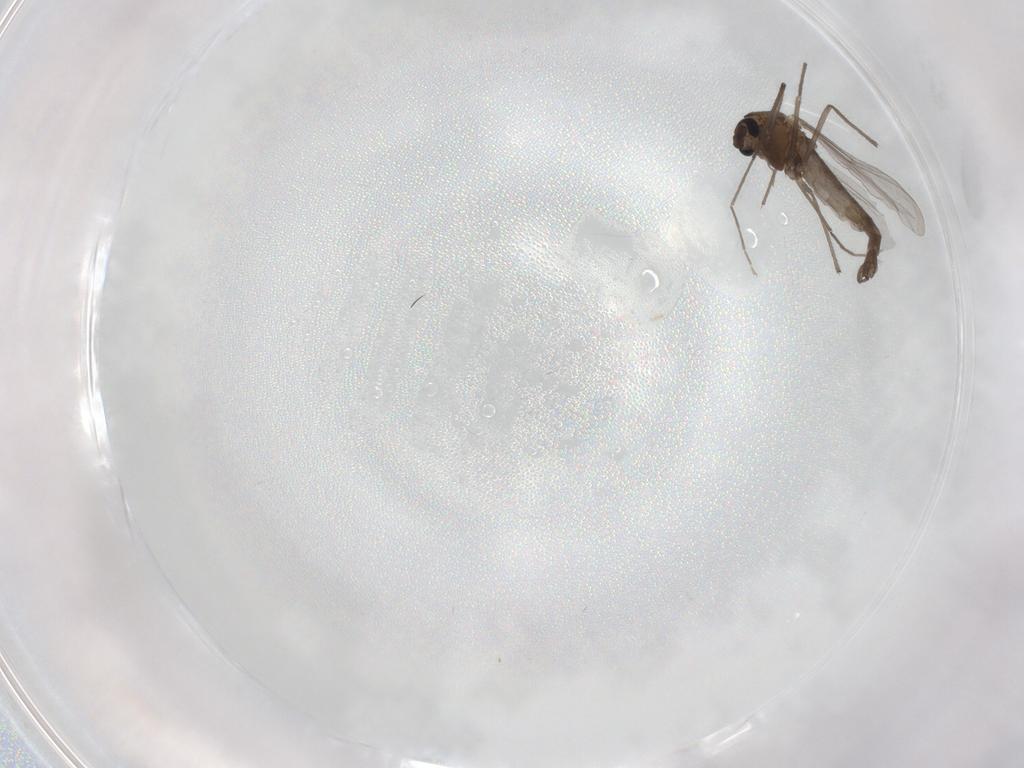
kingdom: Animalia
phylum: Arthropoda
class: Insecta
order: Diptera
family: Chironomidae
